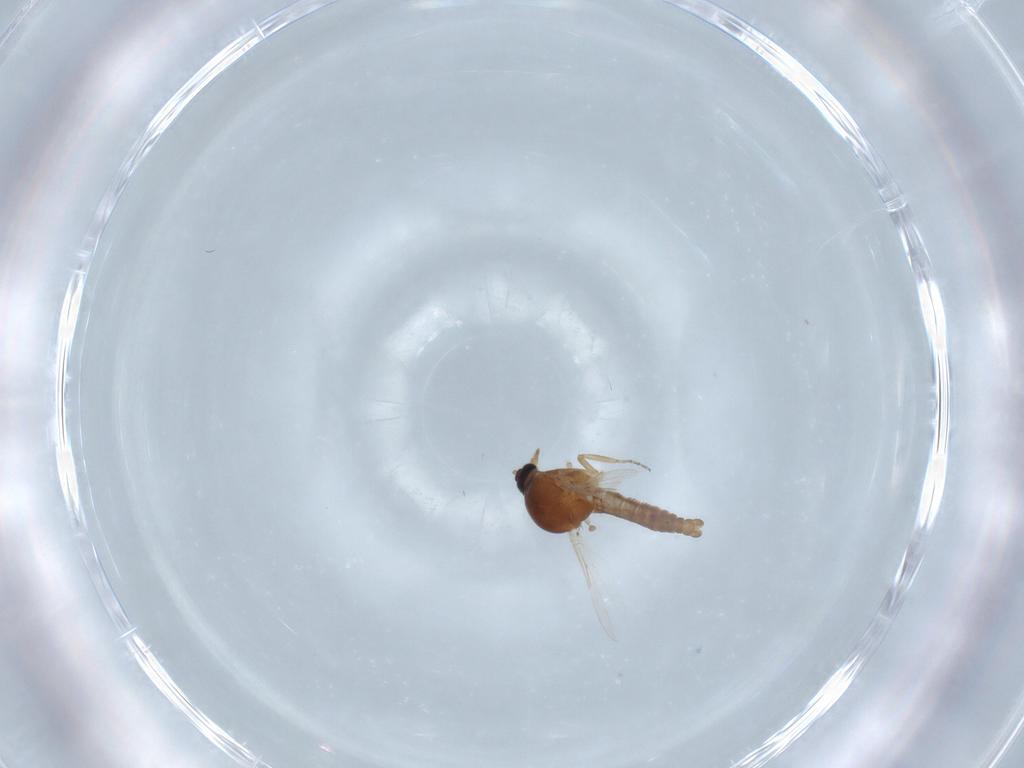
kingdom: Animalia
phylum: Arthropoda
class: Insecta
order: Diptera
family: Ceratopogonidae
